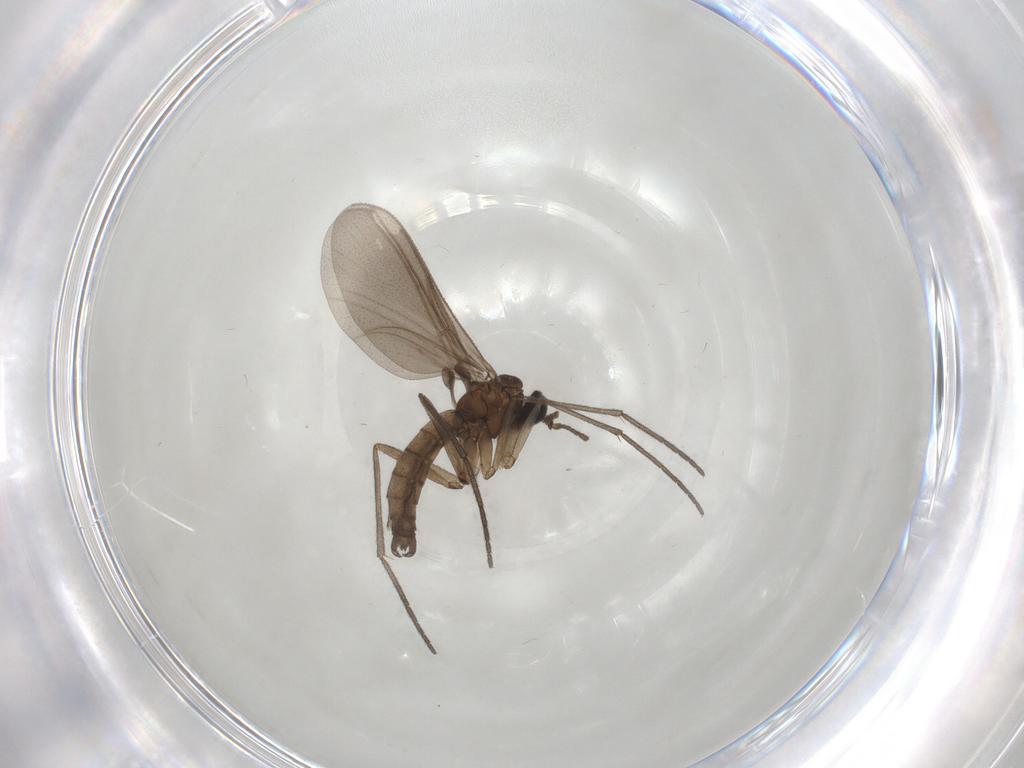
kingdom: Animalia
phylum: Arthropoda
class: Insecta
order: Diptera
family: Sciaridae
